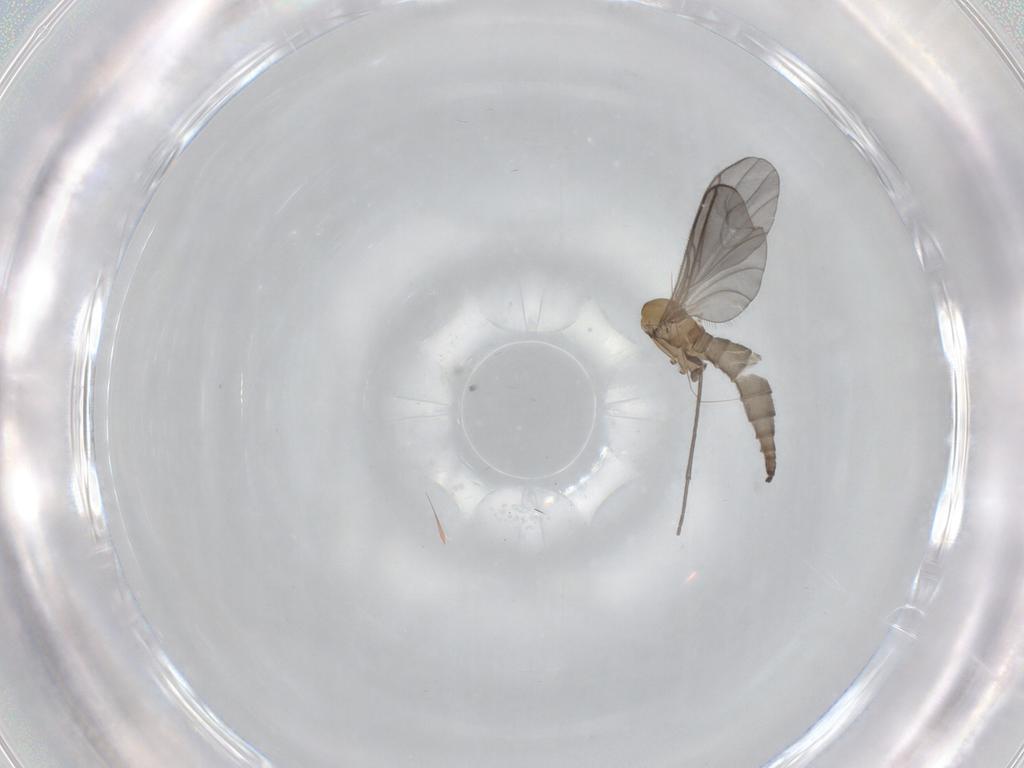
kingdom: Animalia
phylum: Arthropoda
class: Insecta
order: Diptera
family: Sciaridae
